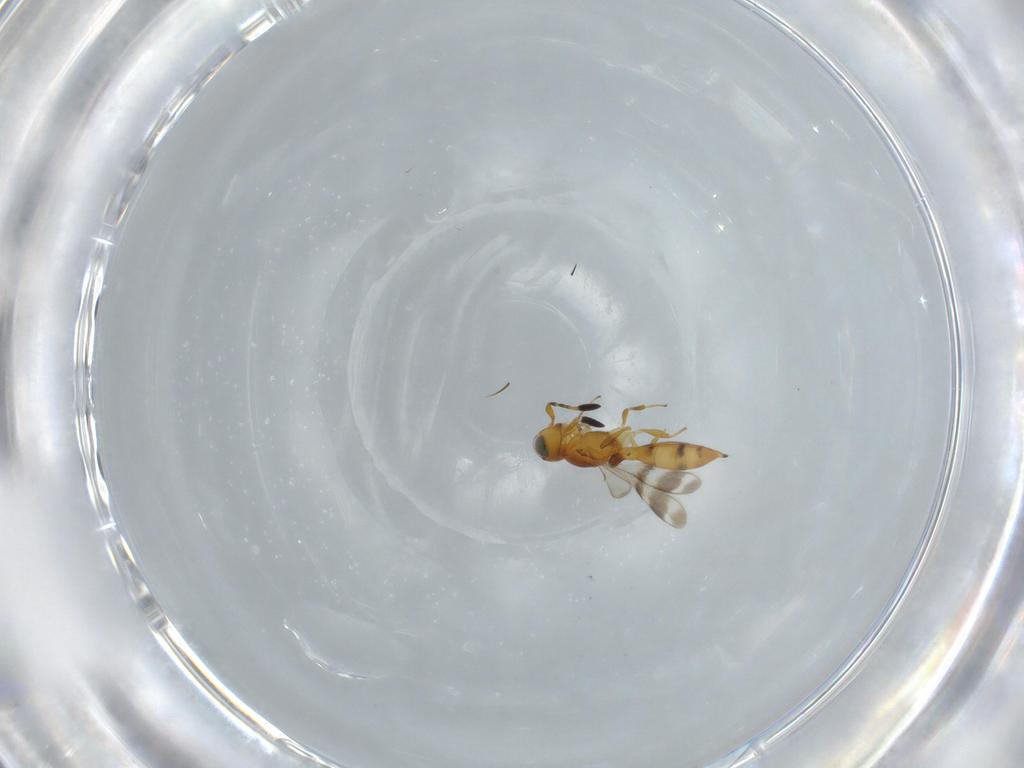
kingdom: Animalia
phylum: Arthropoda
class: Insecta
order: Hymenoptera
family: Scelionidae
